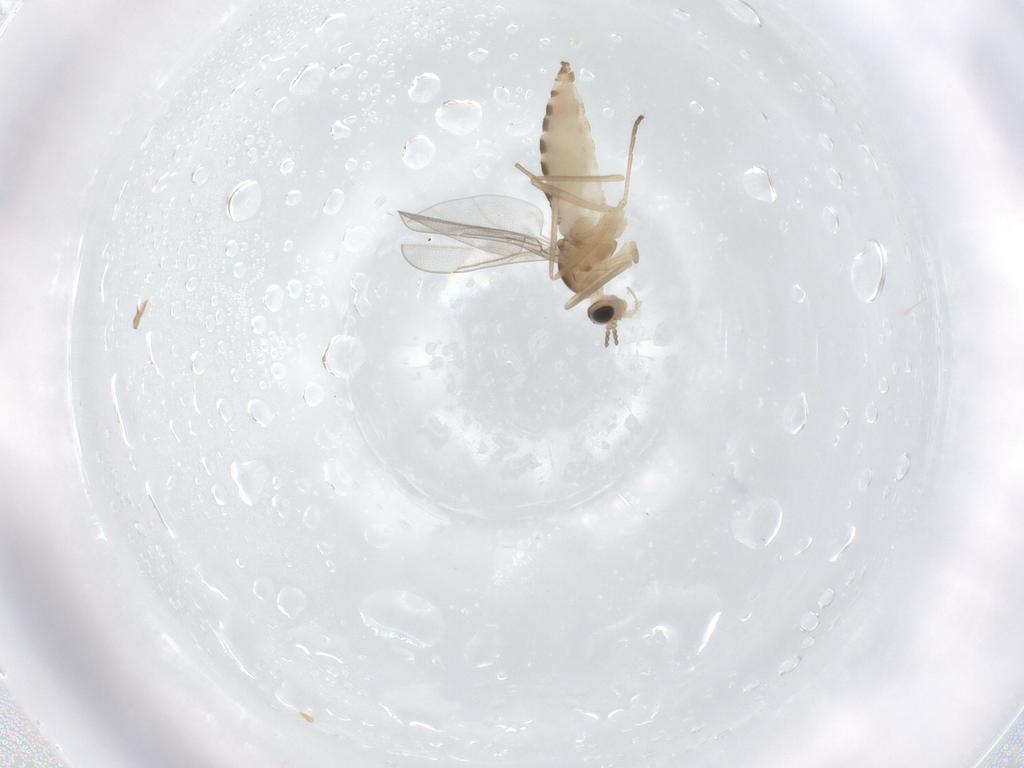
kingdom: Animalia
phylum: Arthropoda
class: Insecta
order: Diptera
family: Cecidomyiidae
